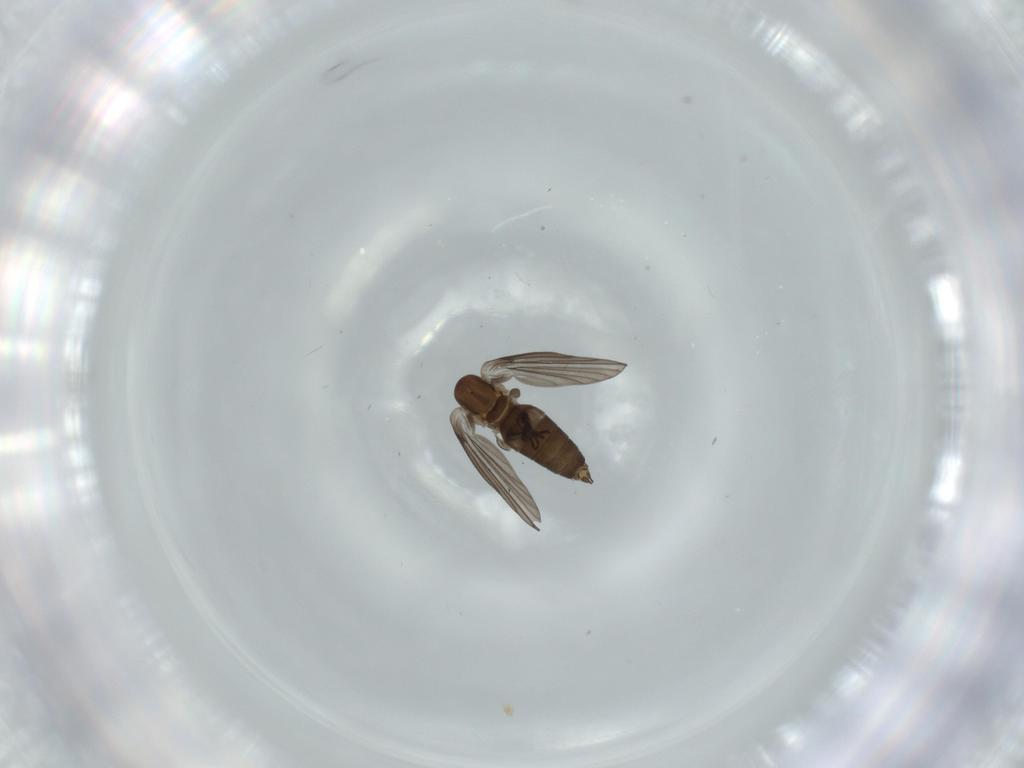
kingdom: Animalia
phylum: Arthropoda
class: Insecta
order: Diptera
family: Psychodidae
